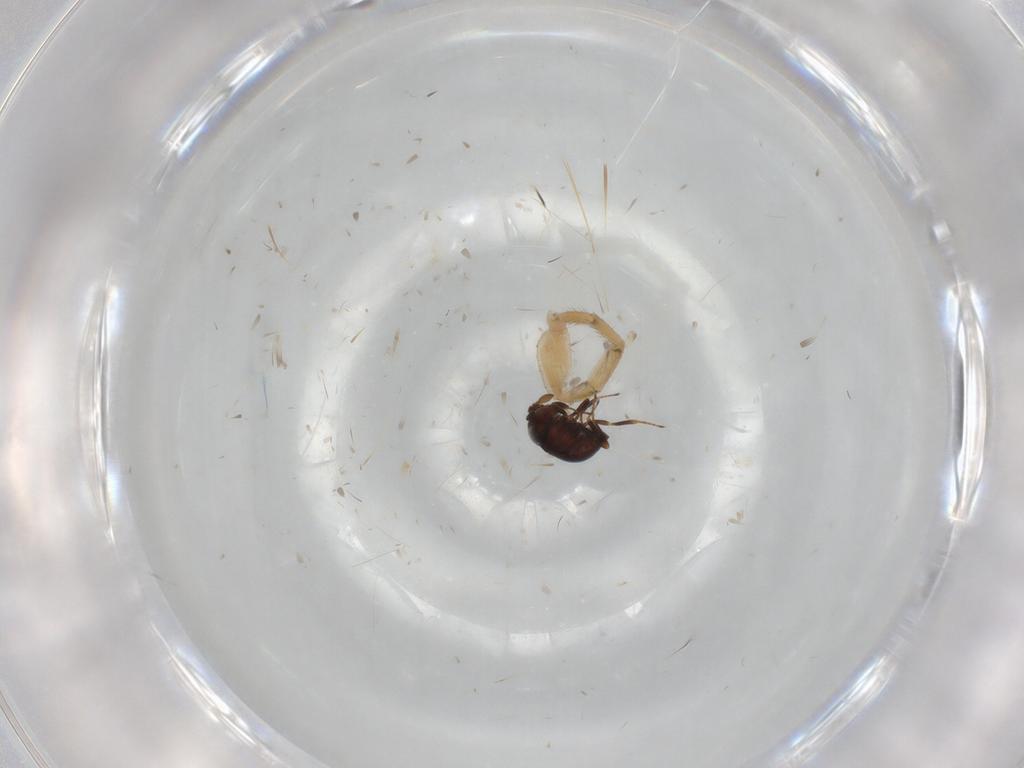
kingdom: Animalia
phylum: Arthropoda
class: Insecta
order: Hymenoptera
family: Scelionidae
